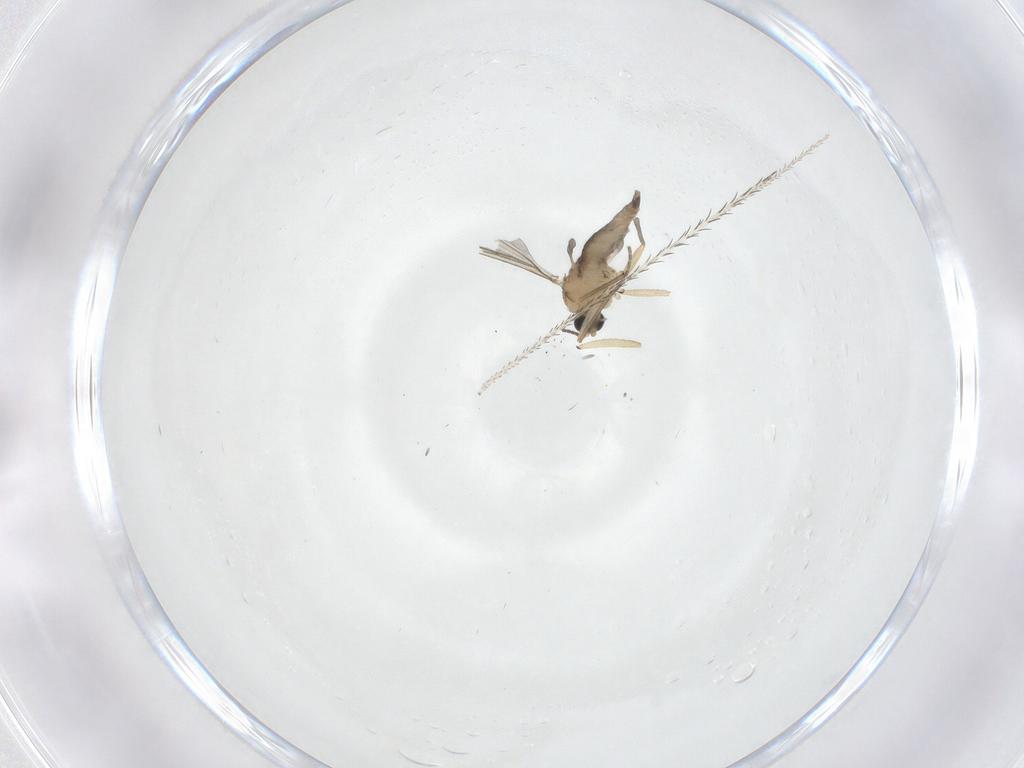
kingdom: Animalia
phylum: Arthropoda
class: Insecta
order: Diptera
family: Sciaridae
